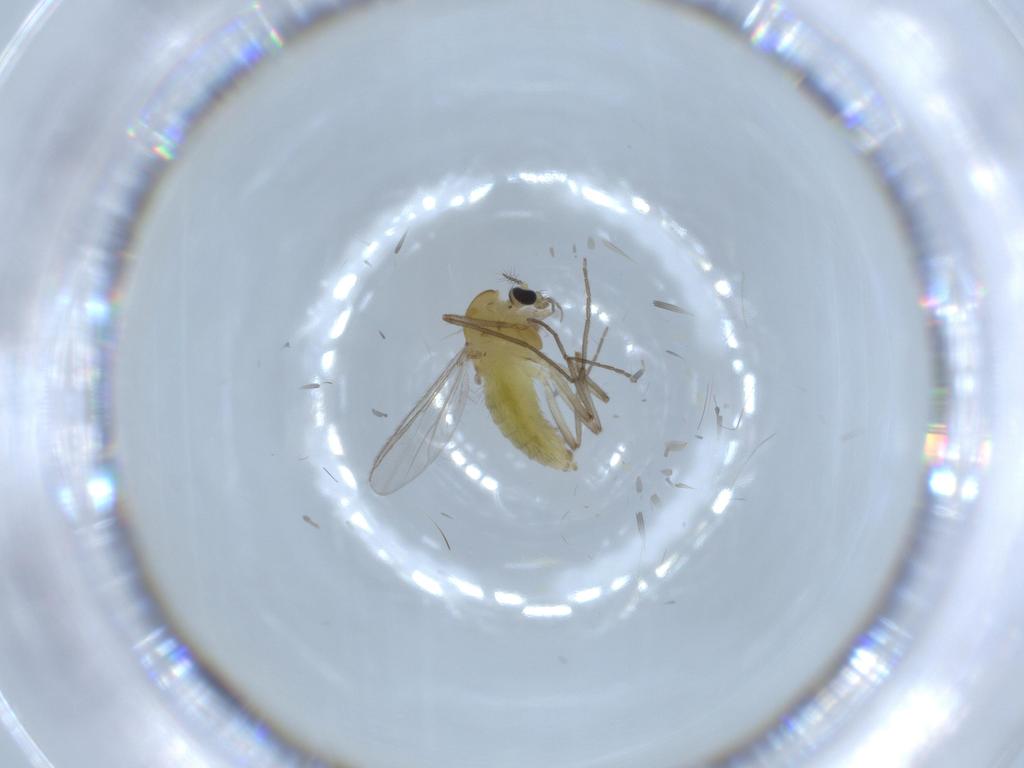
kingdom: Animalia
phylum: Arthropoda
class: Insecta
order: Diptera
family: Chironomidae
